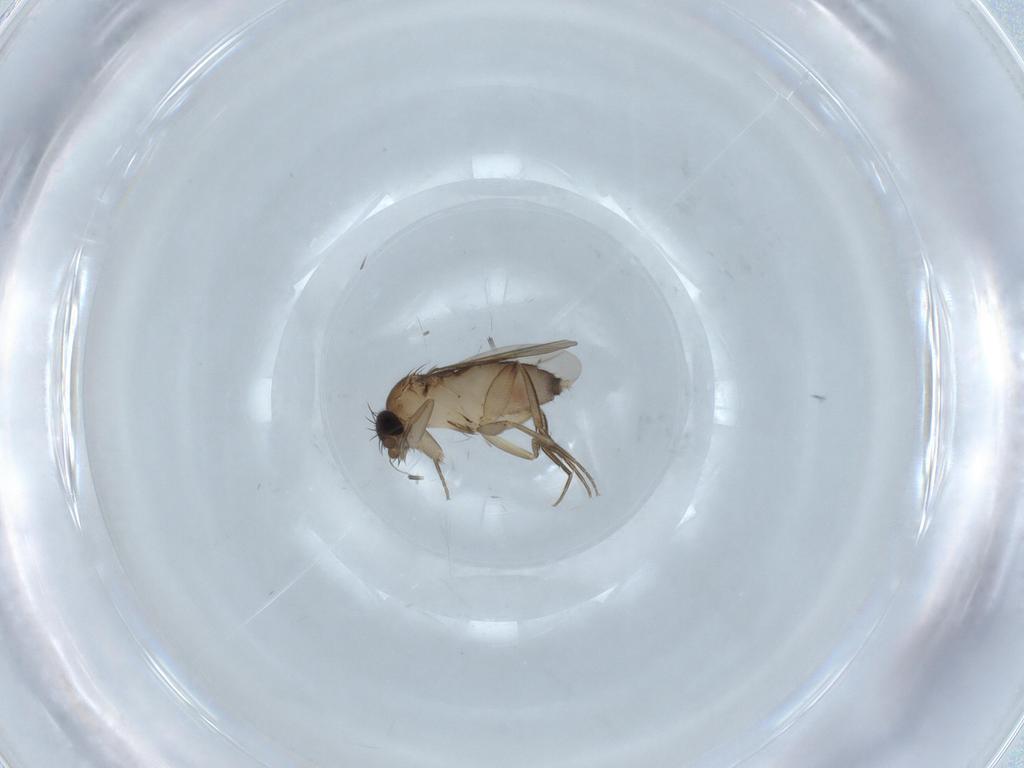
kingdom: Animalia
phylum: Arthropoda
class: Insecta
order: Diptera
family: Phoridae
